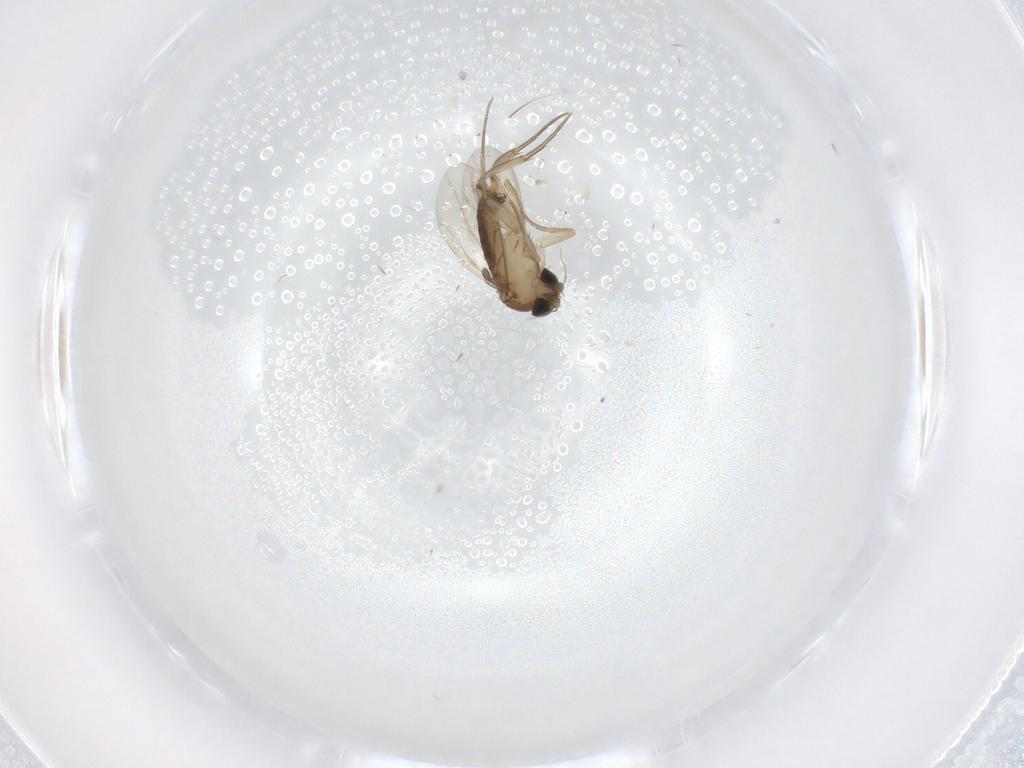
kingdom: Animalia
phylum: Arthropoda
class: Insecta
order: Diptera
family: Phoridae
